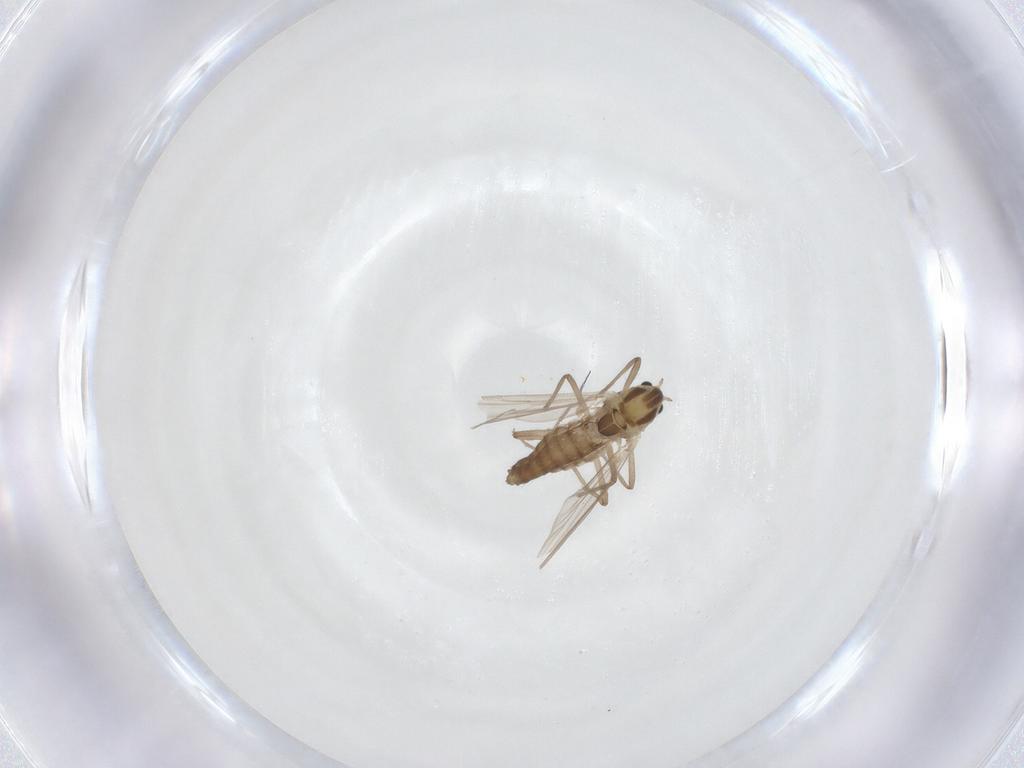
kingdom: Animalia
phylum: Arthropoda
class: Insecta
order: Diptera
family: Chironomidae
